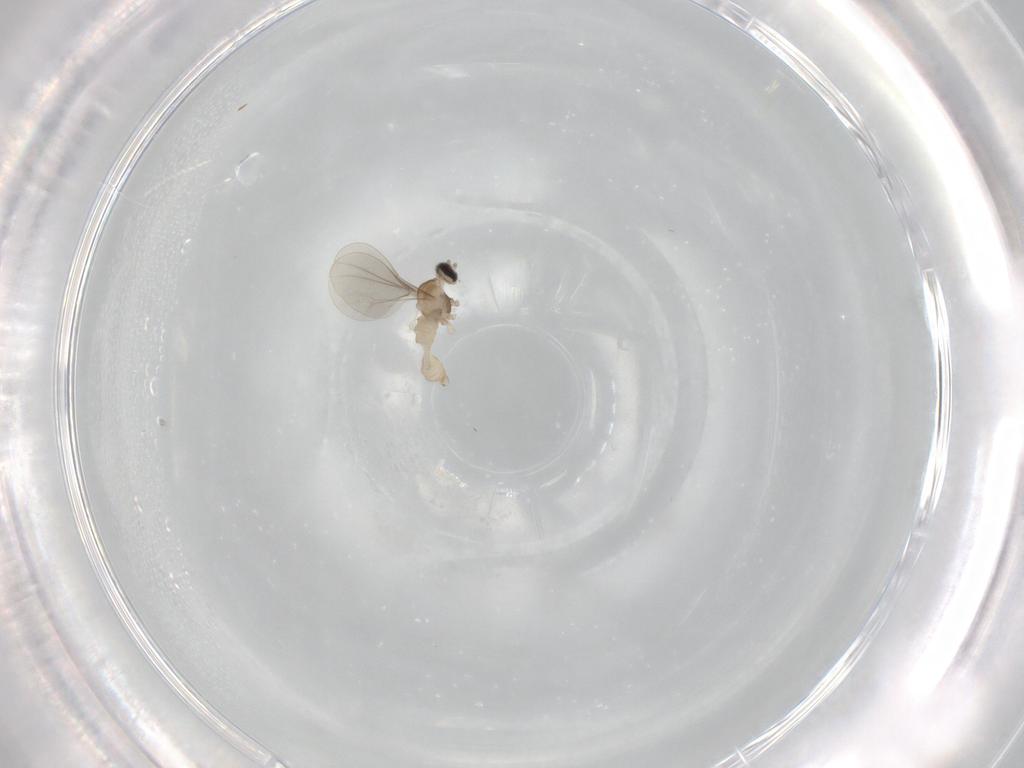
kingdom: Animalia
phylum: Arthropoda
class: Insecta
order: Diptera
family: Cecidomyiidae
